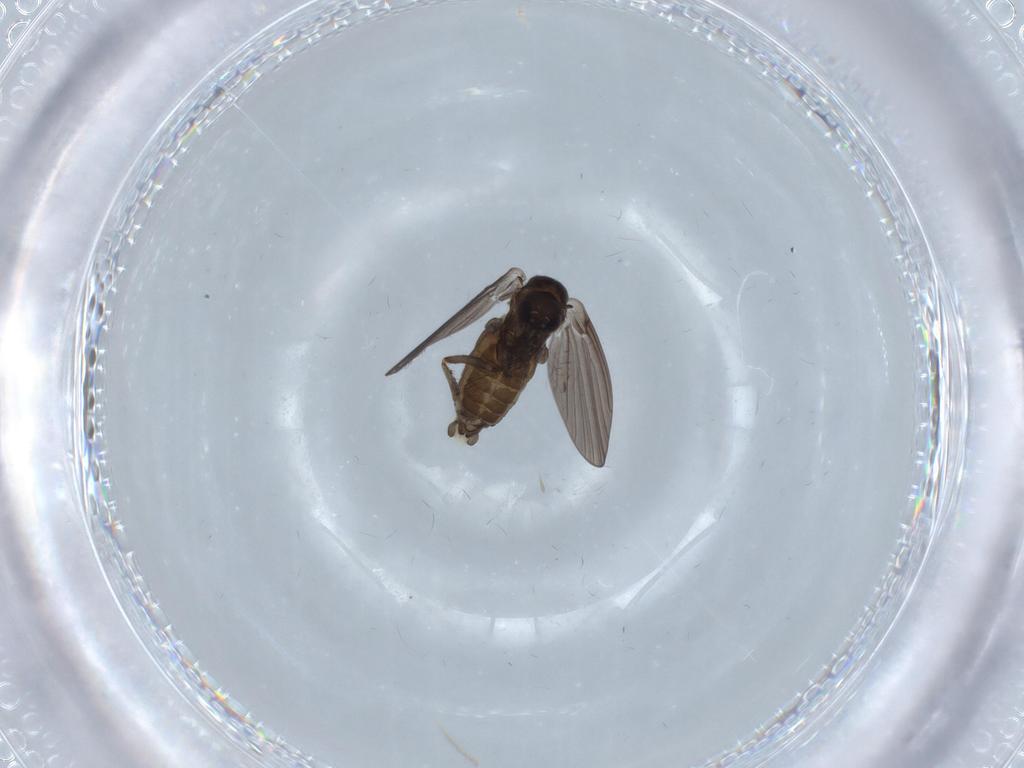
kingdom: Animalia
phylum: Arthropoda
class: Insecta
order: Diptera
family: Psychodidae
